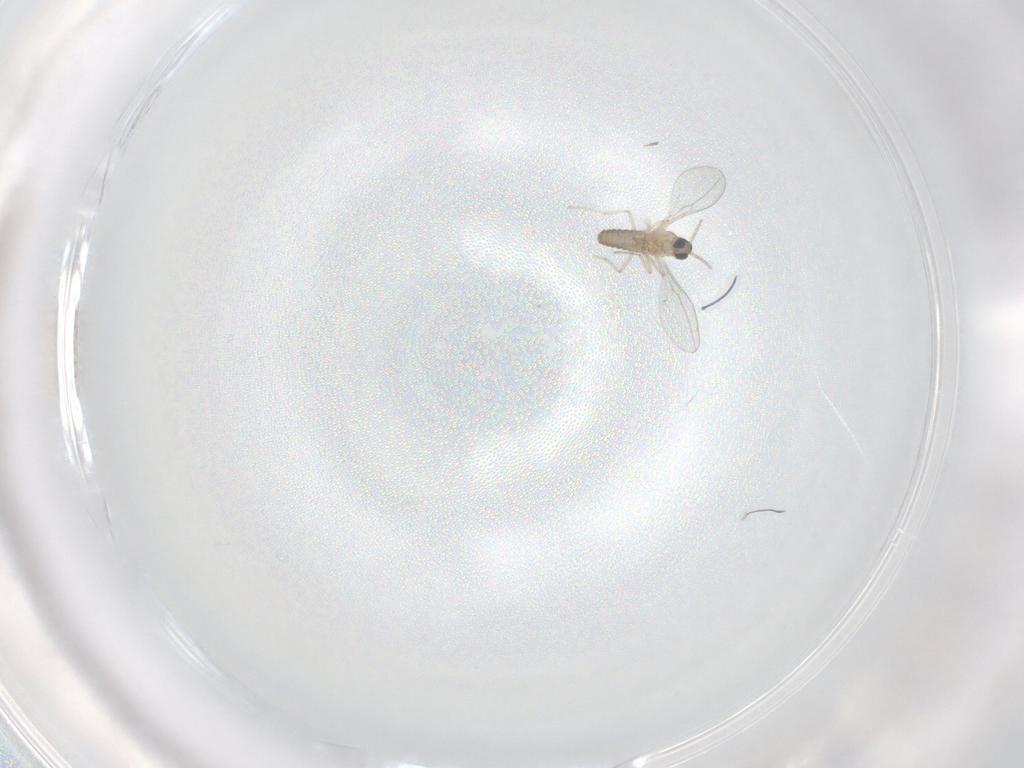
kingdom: Animalia
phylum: Arthropoda
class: Insecta
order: Diptera
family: Cecidomyiidae
